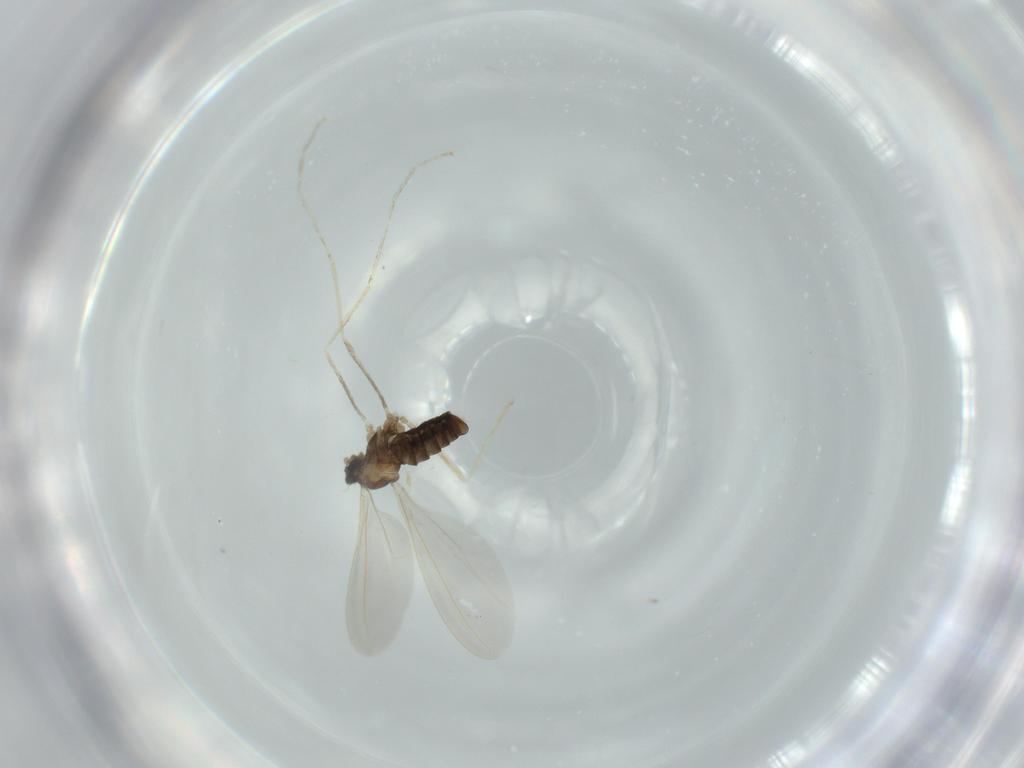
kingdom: Animalia
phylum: Arthropoda
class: Insecta
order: Diptera
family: Cecidomyiidae
